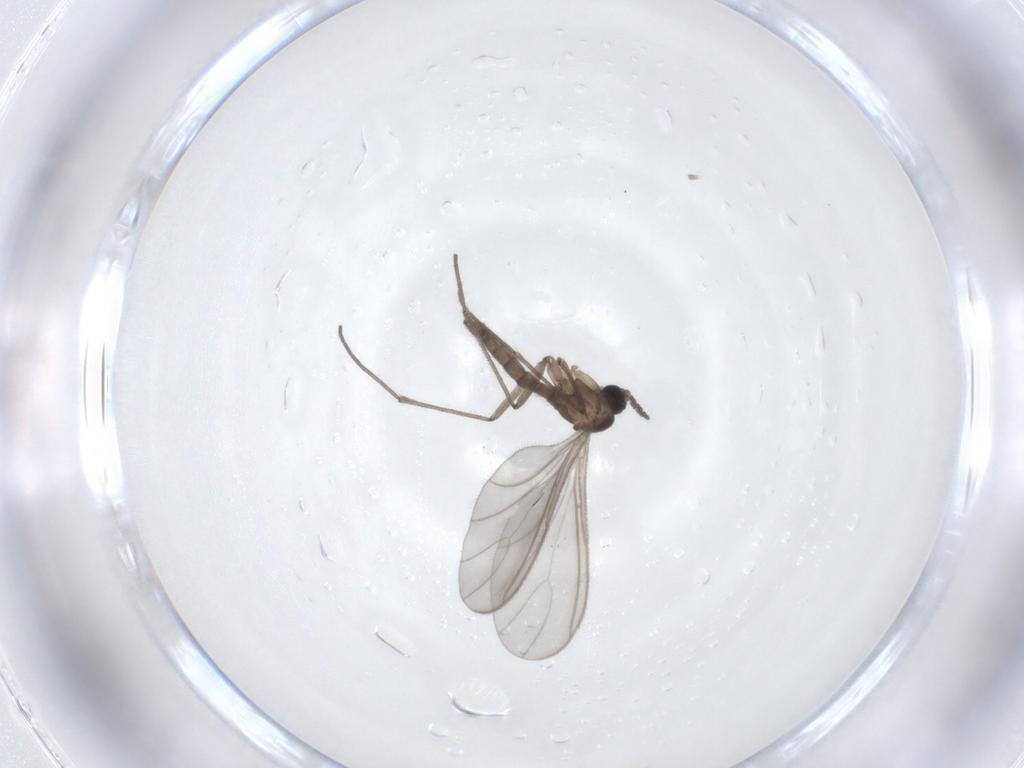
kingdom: Animalia
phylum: Arthropoda
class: Insecta
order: Diptera
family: Sciaridae
